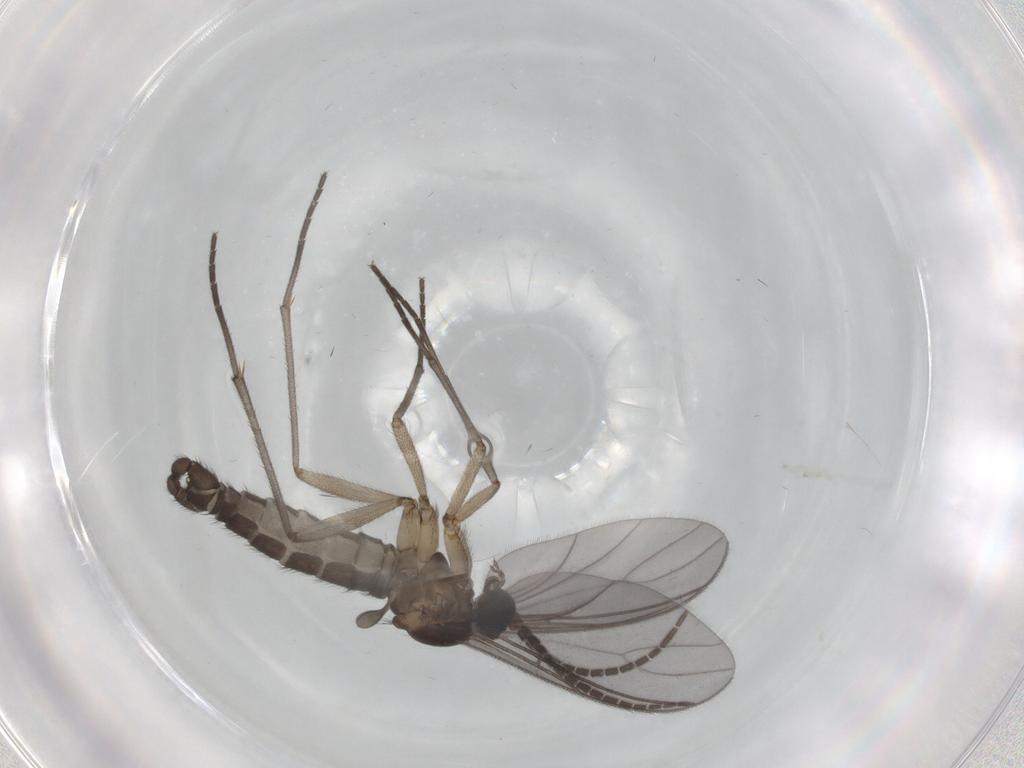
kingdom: Animalia
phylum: Arthropoda
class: Insecta
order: Diptera
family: Sciaridae
